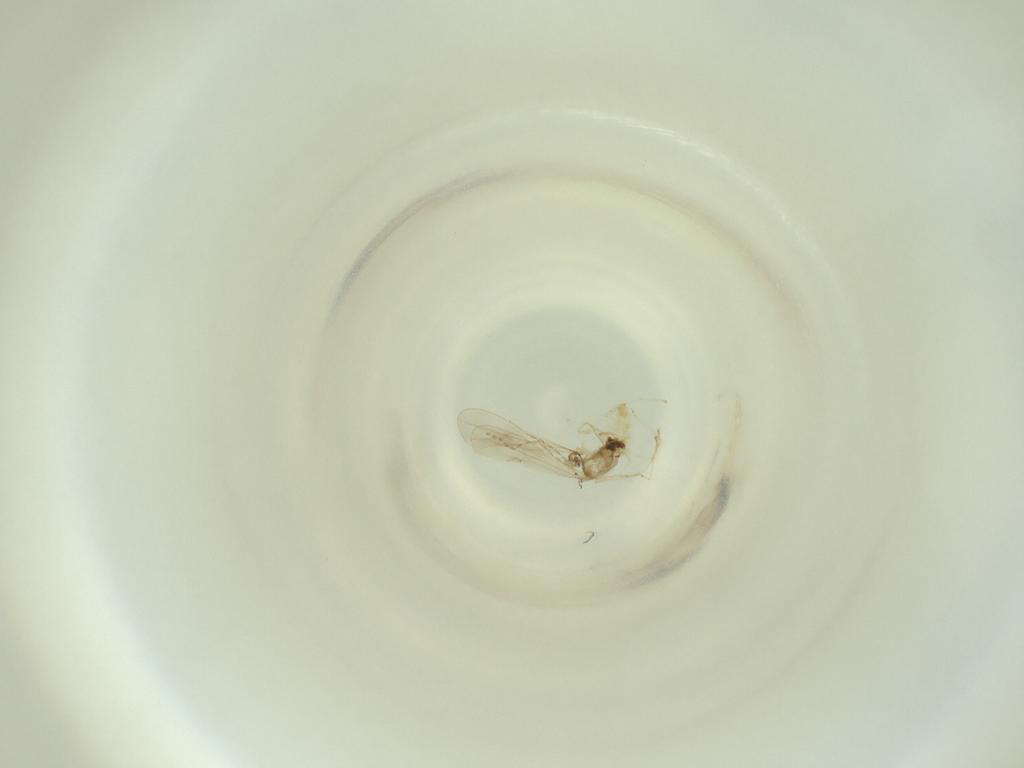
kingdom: Animalia
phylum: Arthropoda
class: Insecta
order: Diptera
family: Cecidomyiidae
